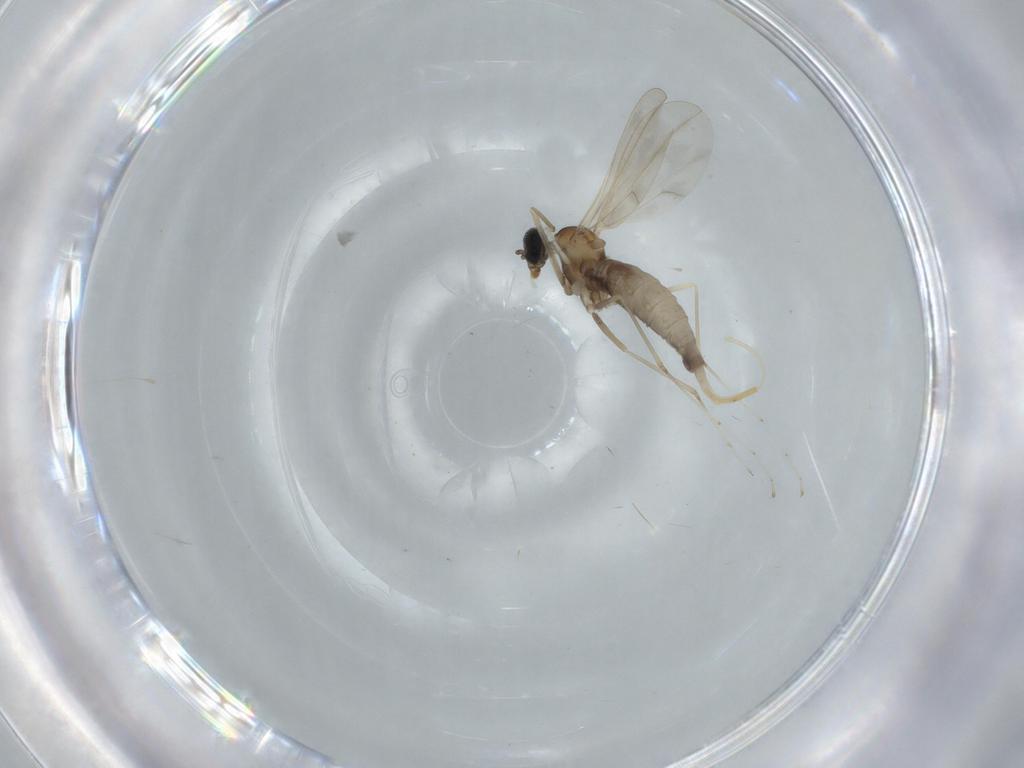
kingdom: Animalia
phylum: Arthropoda
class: Insecta
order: Diptera
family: Cecidomyiidae
